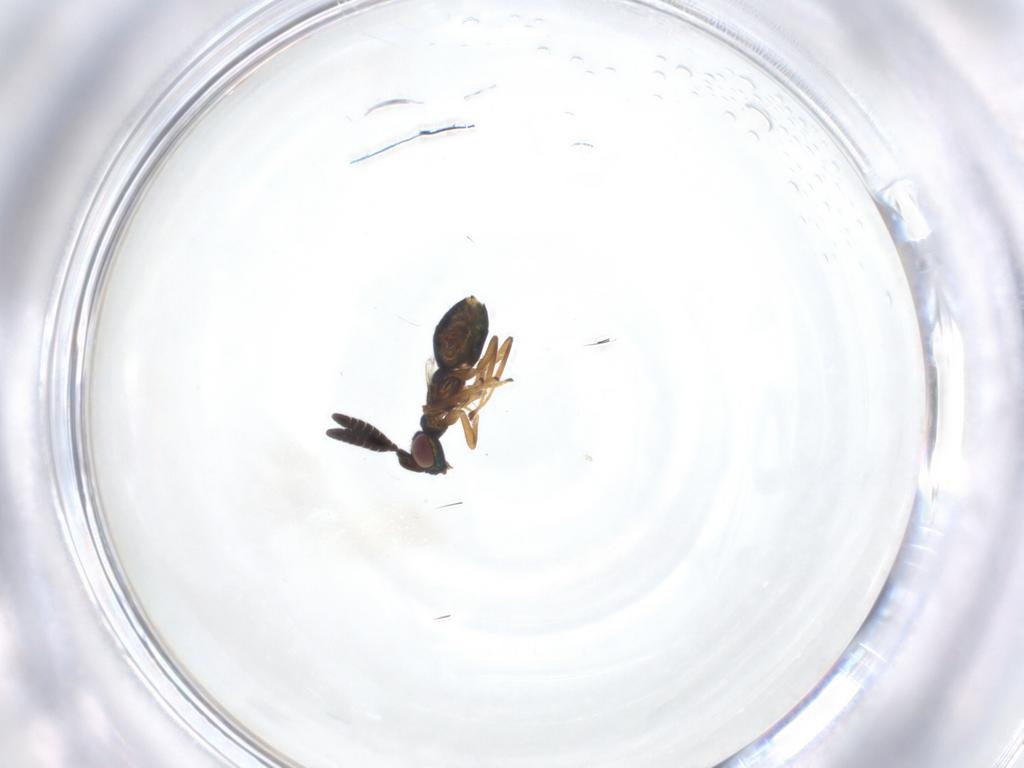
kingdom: Animalia
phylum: Arthropoda
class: Insecta
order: Hymenoptera
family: Encyrtidae
